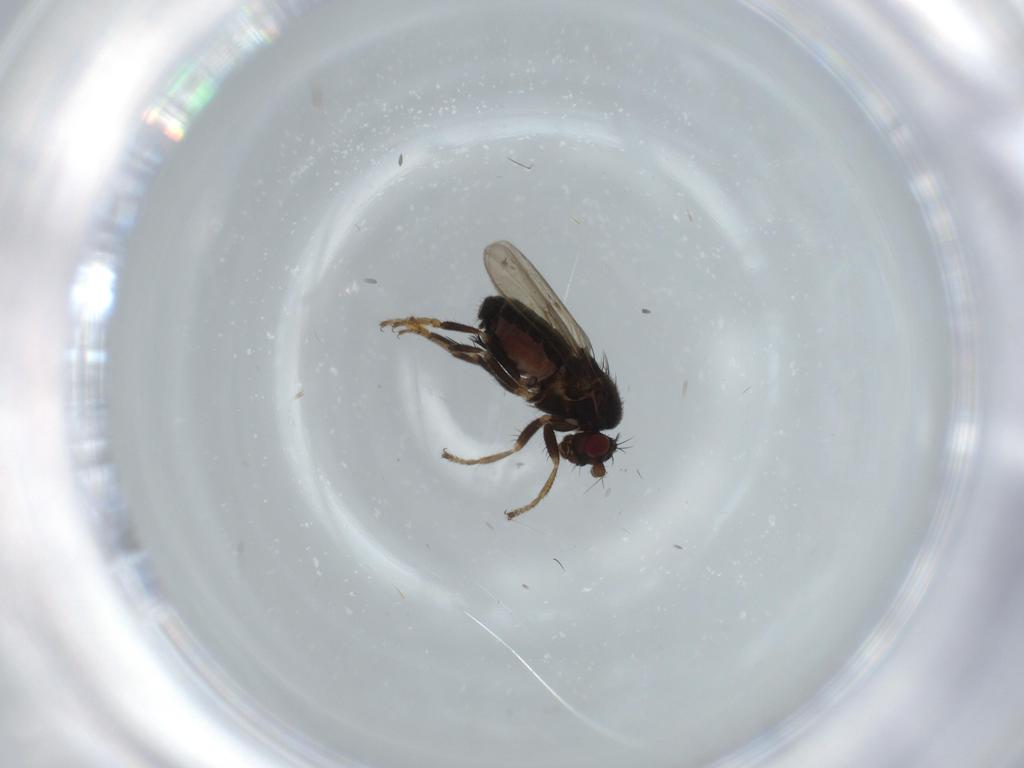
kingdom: Animalia
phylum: Arthropoda
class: Insecta
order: Diptera
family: Sphaeroceridae
